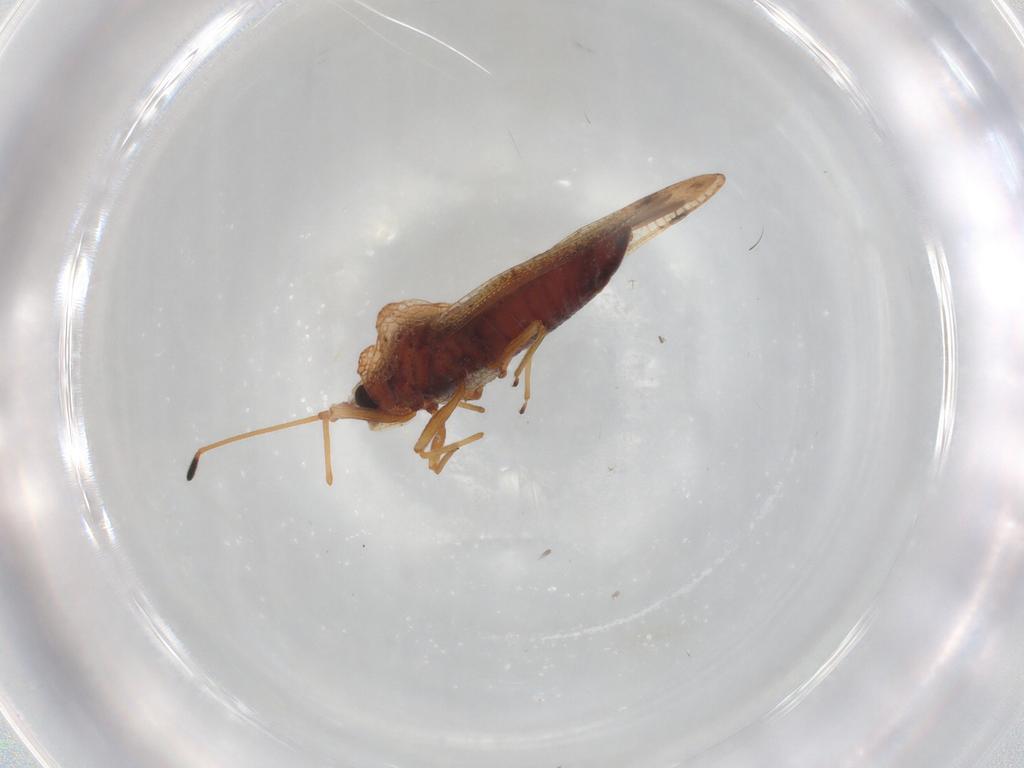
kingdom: Animalia
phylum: Arthropoda
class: Insecta
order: Hemiptera
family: Aleyrodidae
